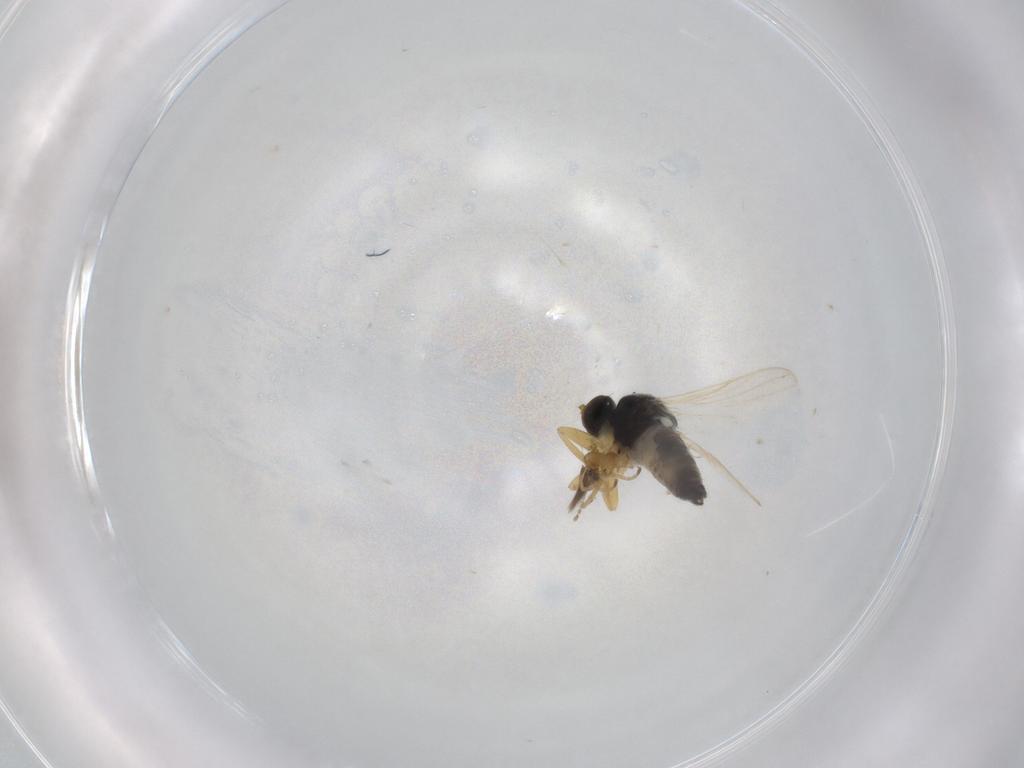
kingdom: Animalia
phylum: Arthropoda
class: Insecta
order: Diptera
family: Hybotidae
